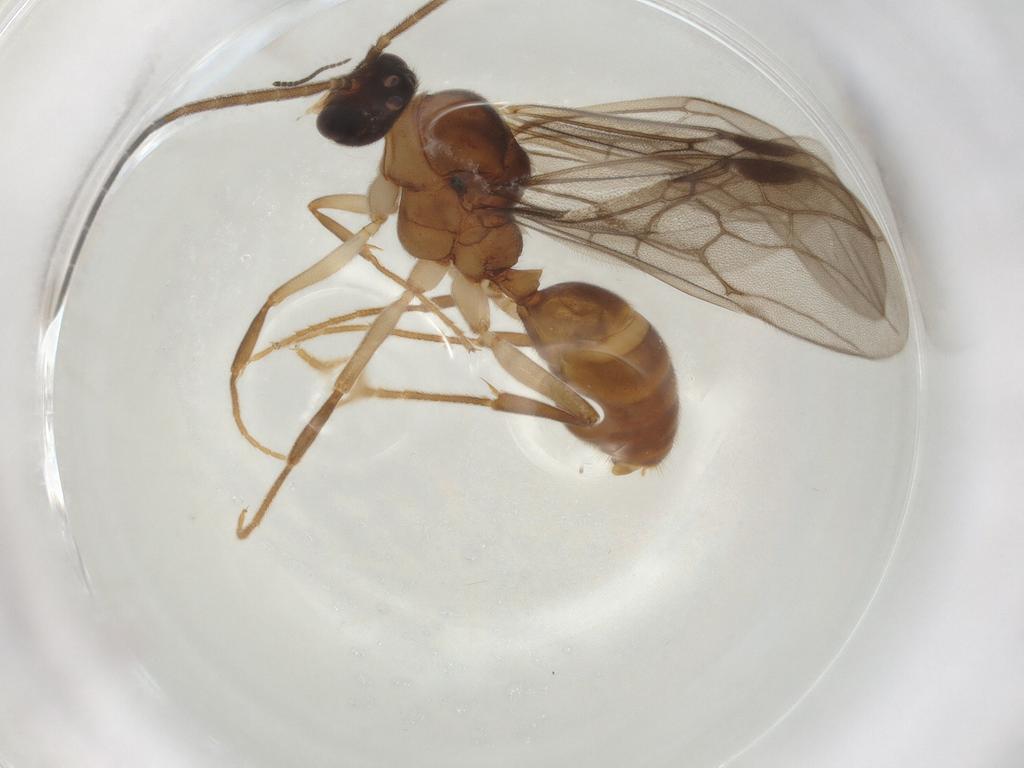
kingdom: Animalia
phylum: Arthropoda
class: Insecta
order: Hymenoptera
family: Formicidae
